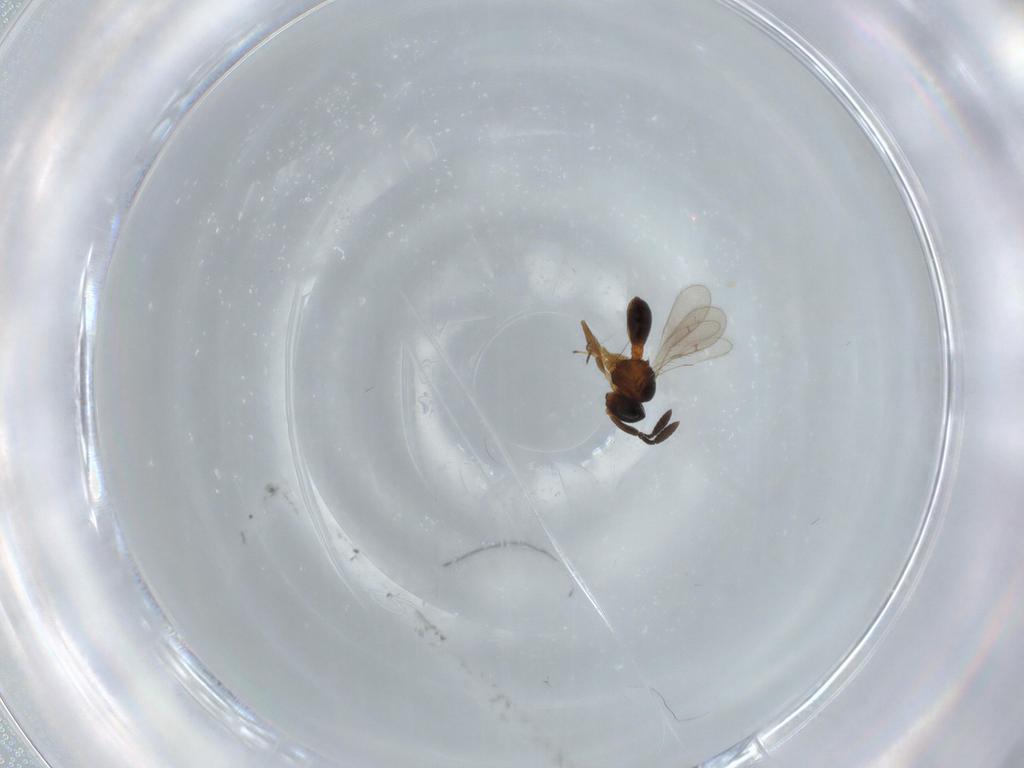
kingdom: Animalia
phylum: Arthropoda
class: Insecta
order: Hymenoptera
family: Scelionidae
